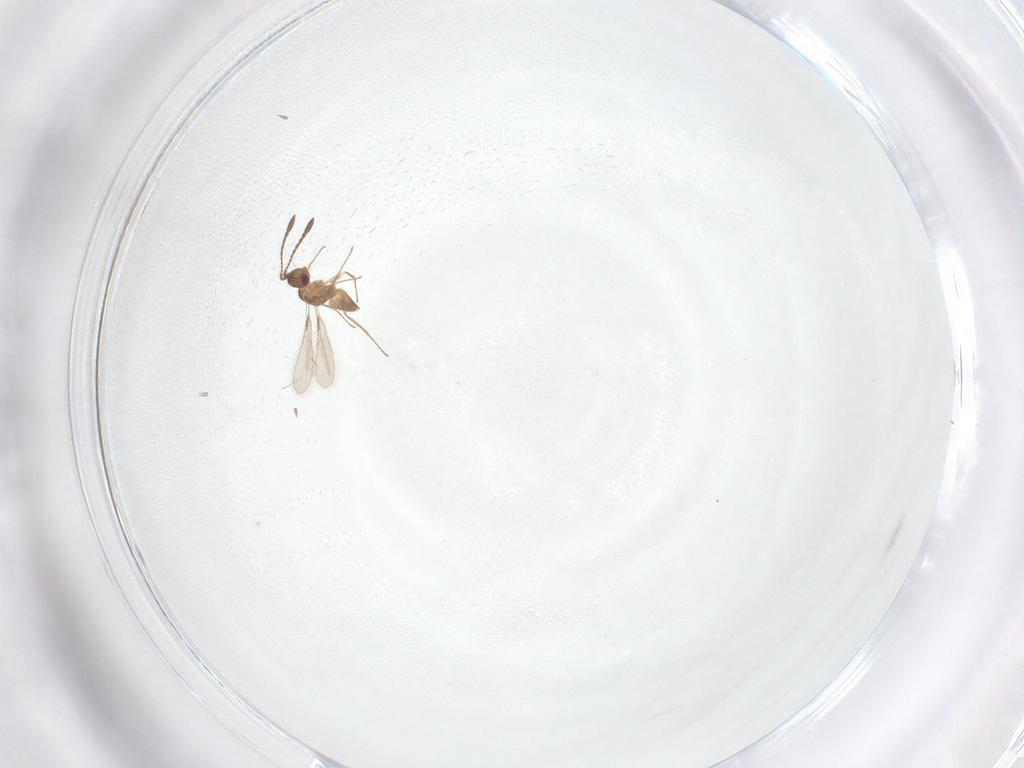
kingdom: Animalia
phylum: Arthropoda
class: Insecta
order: Hymenoptera
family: Mymaridae
